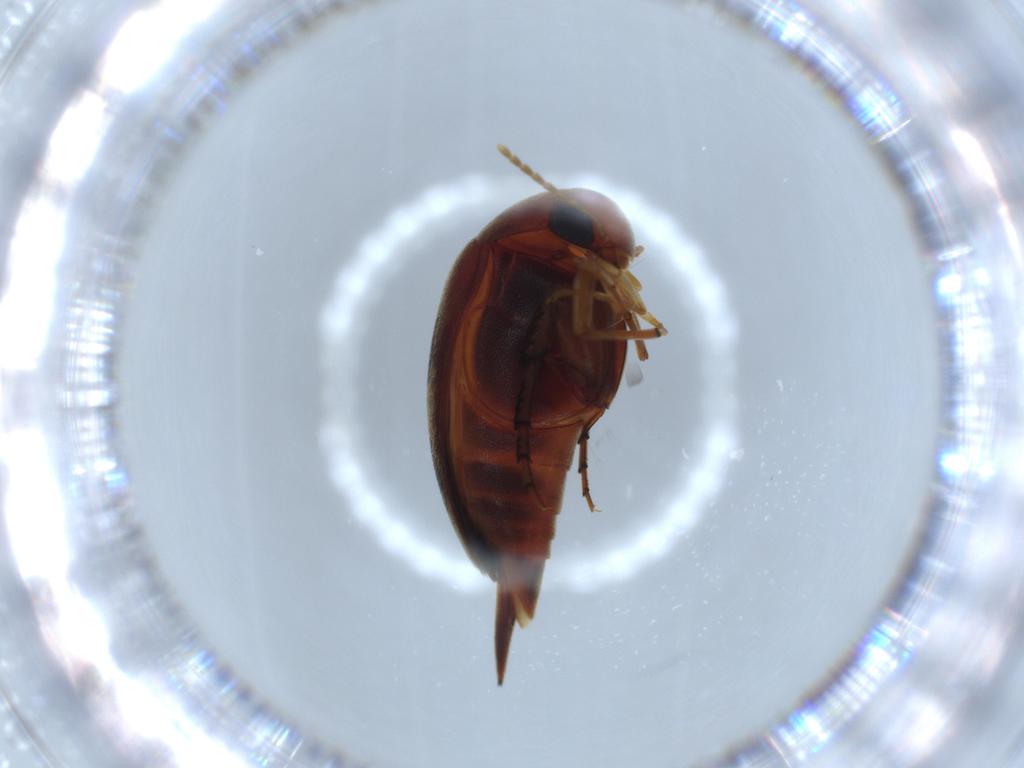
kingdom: Animalia
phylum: Arthropoda
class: Insecta
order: Coleoptera
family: Mordellidae
